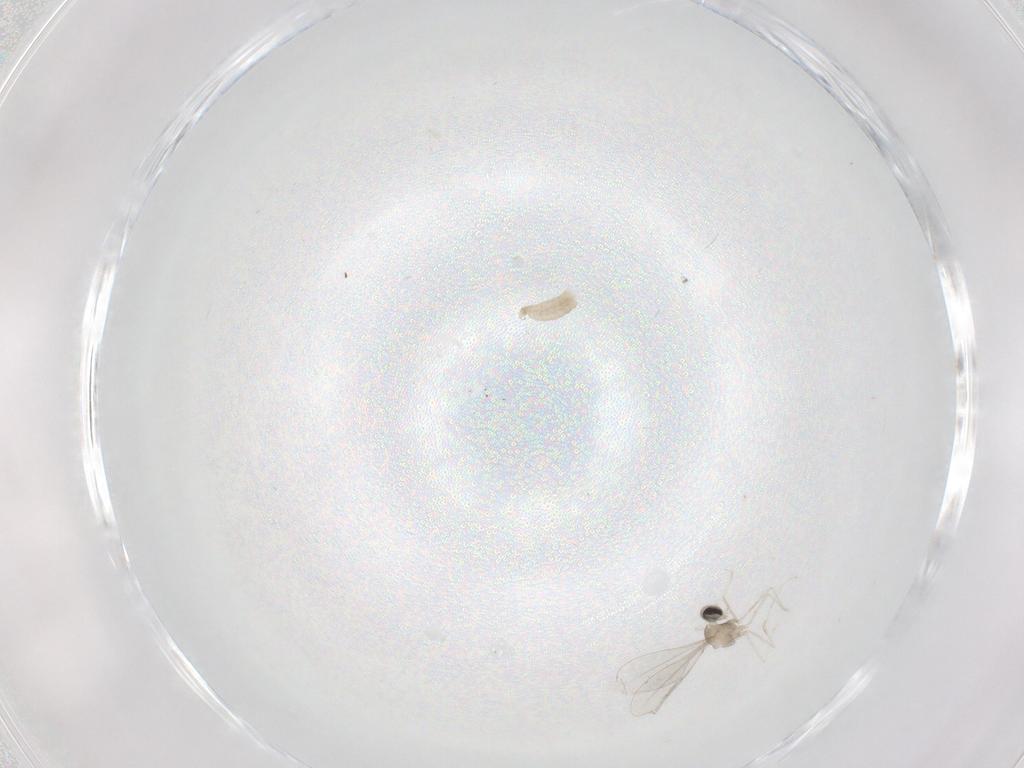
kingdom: Animalia
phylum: Arthropoda
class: Insecta
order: Diptera
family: Cecidomyiidae
